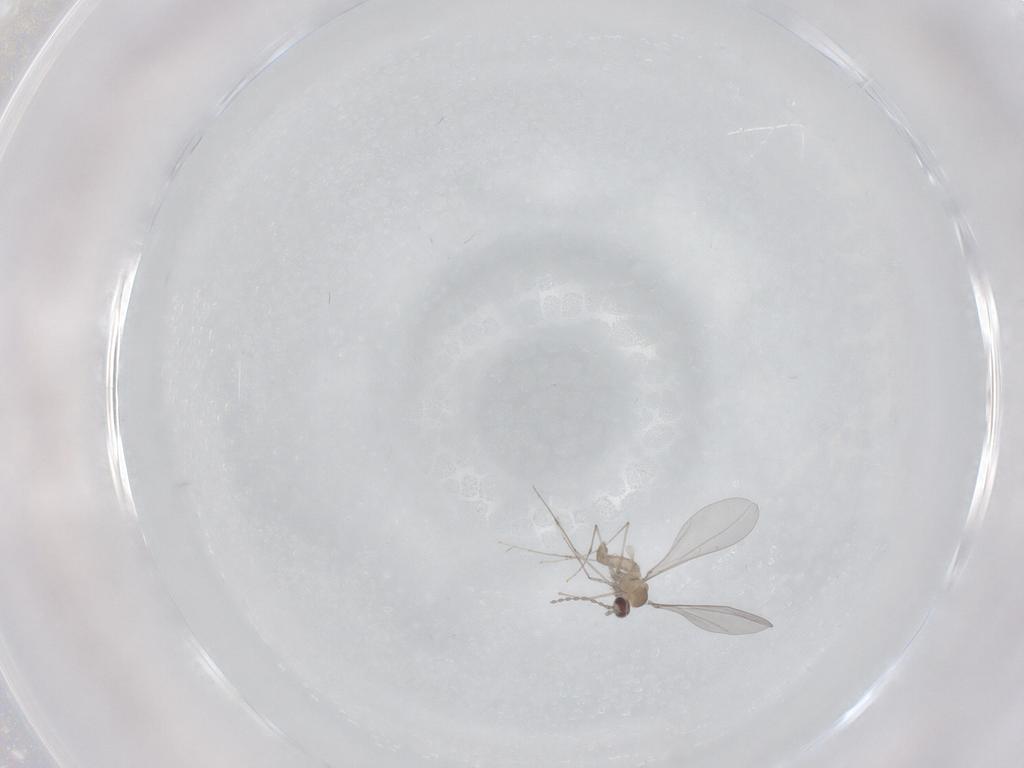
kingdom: Animalia
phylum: Arthropoda
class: Insecta
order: Diptera
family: Cecidomyiidae
